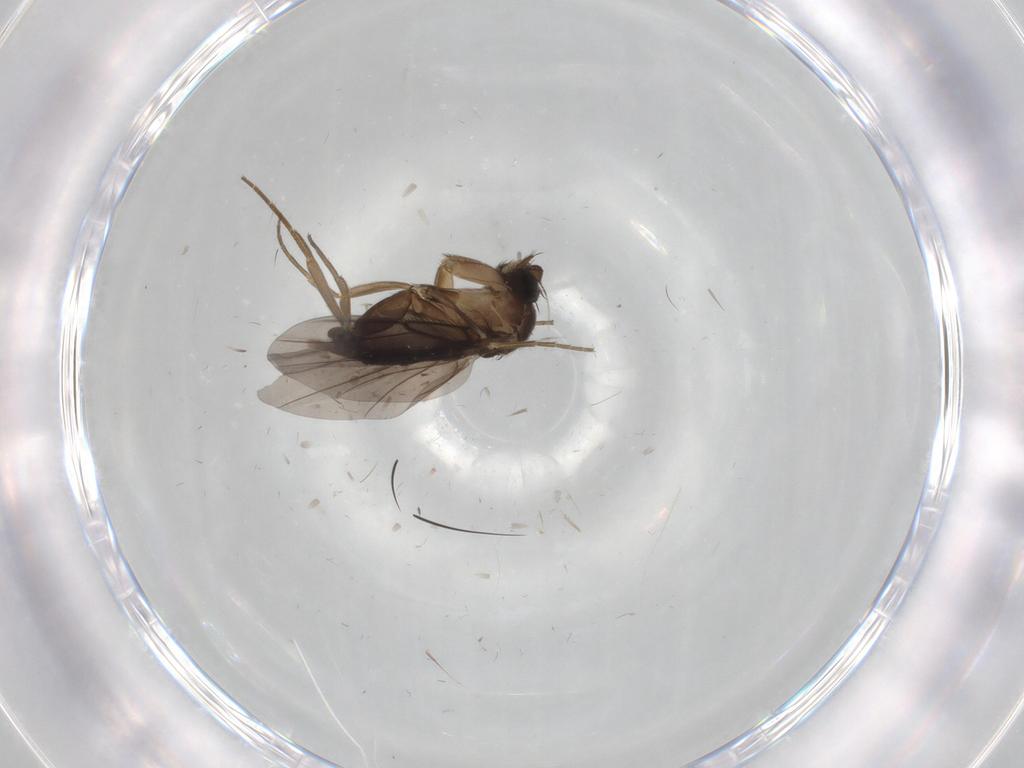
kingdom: Animalia
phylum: Arthropoda
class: Insecta
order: Diptera
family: Phoridae
